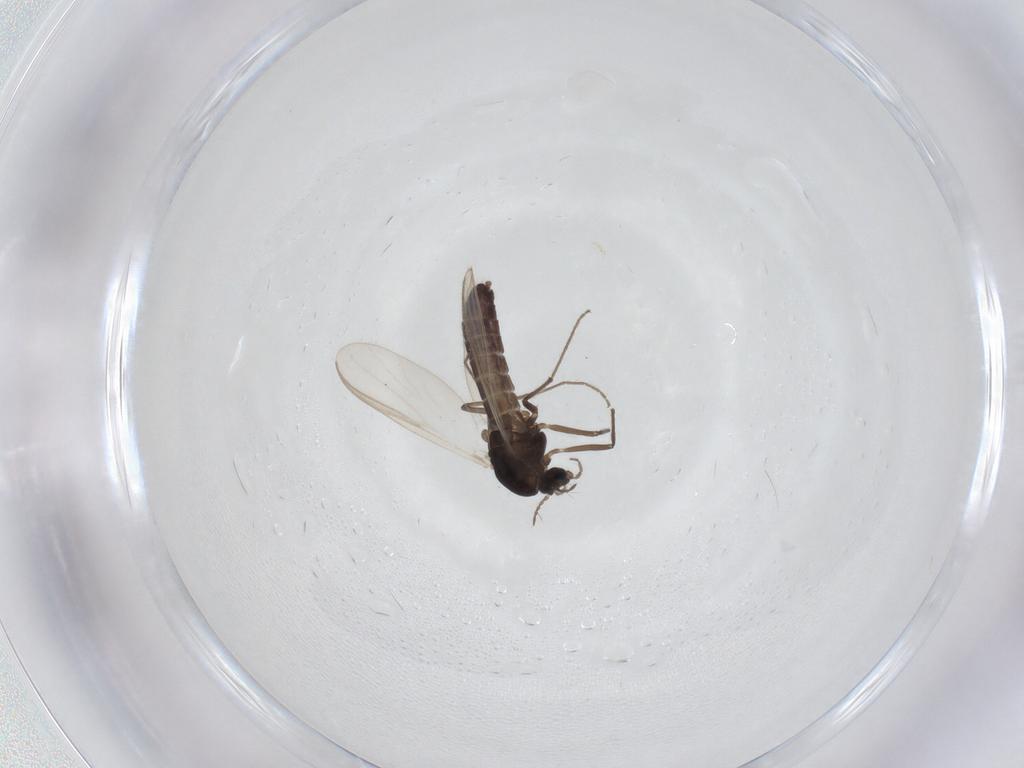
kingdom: Animalia
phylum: Arthropoda
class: Insecta
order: Diptera
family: Chironomidae
